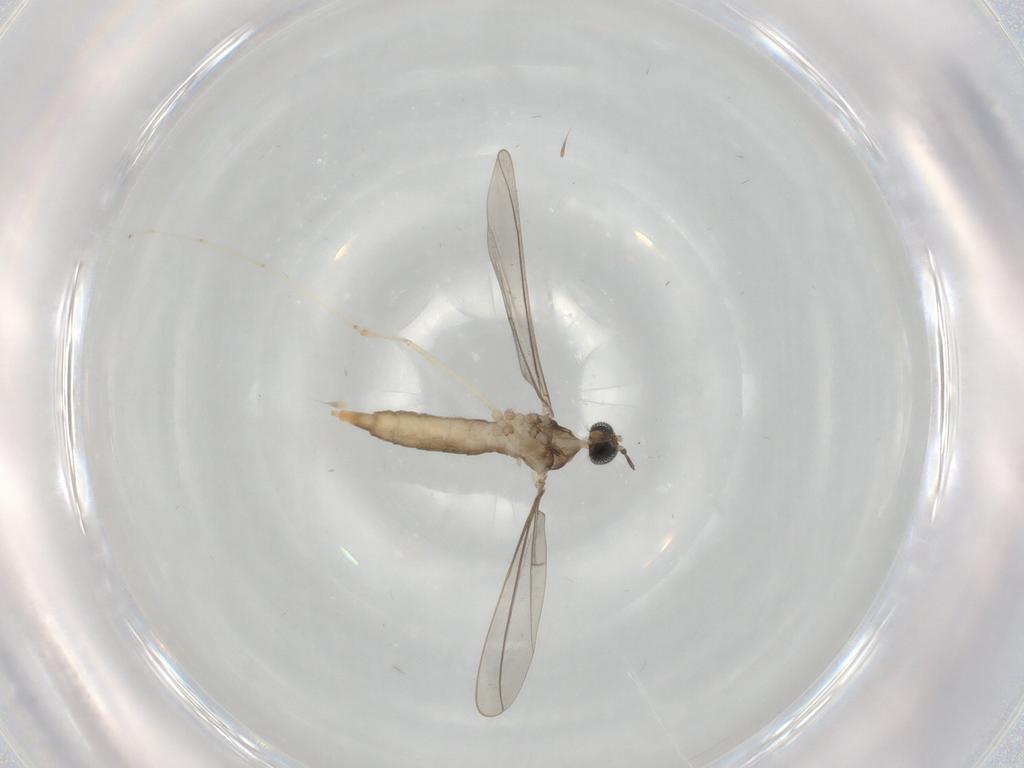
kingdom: Animalia
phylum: Arthropoda
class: Insecta
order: Diptera
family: Cecidomyiidae
